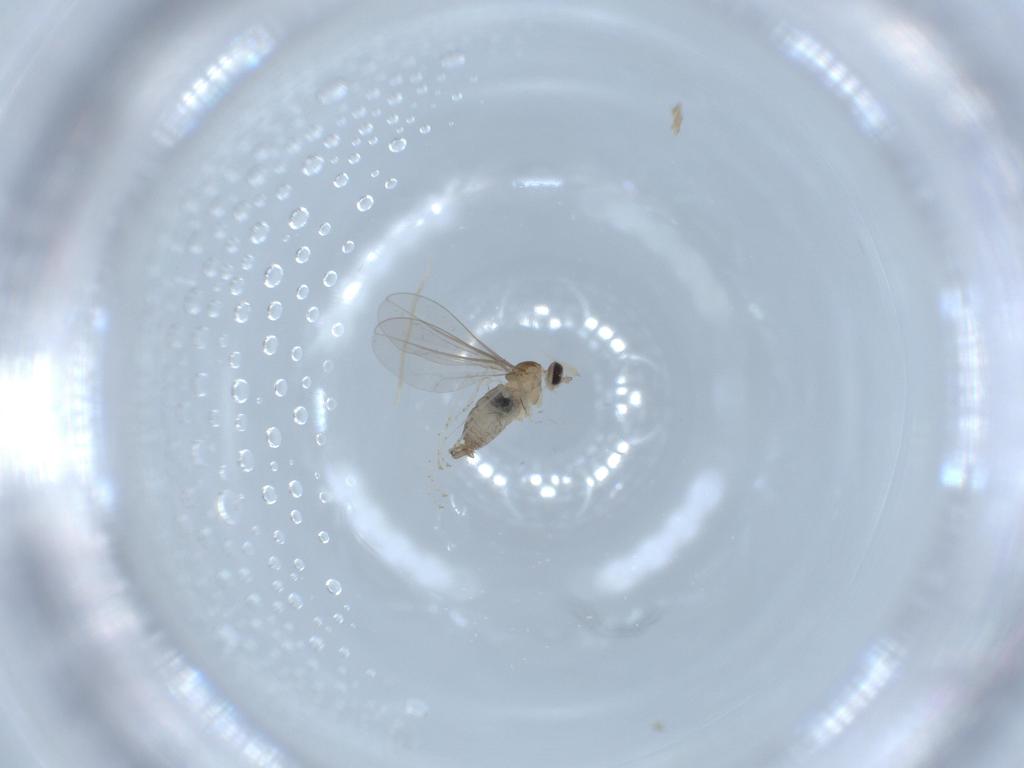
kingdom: Animalia
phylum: Arthropoda
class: Insecta
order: Diptera
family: Cecidomyiidae
